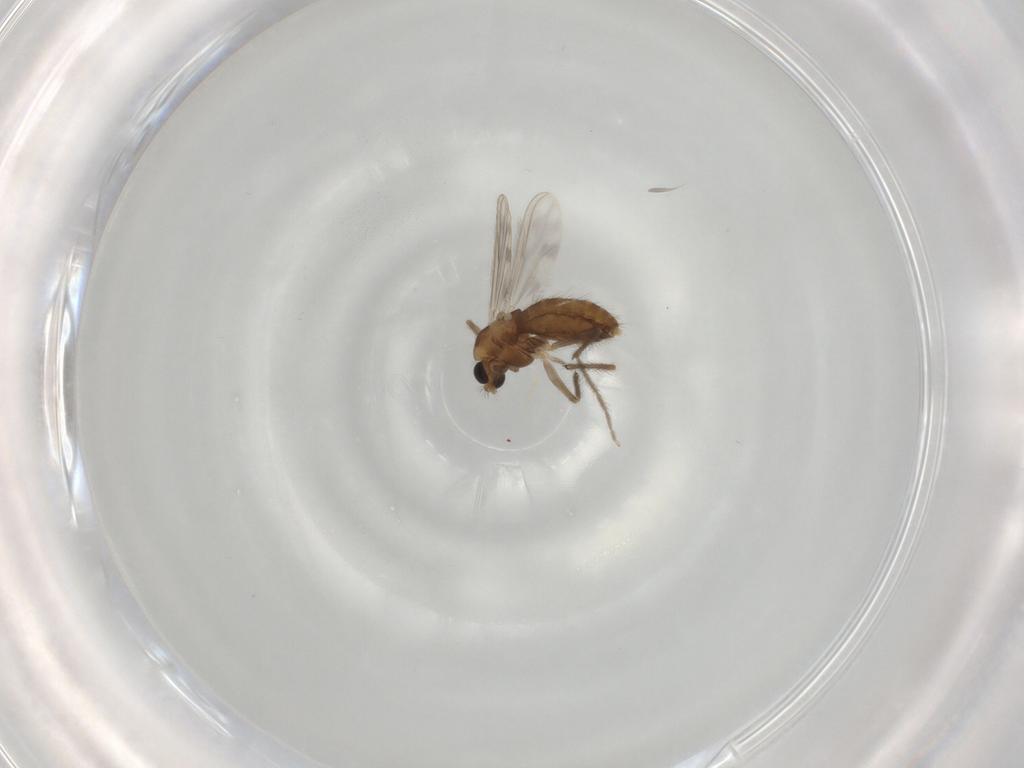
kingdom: Animalia
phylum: Arthropoda
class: Insecta
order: Diptera
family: Chironomidae
